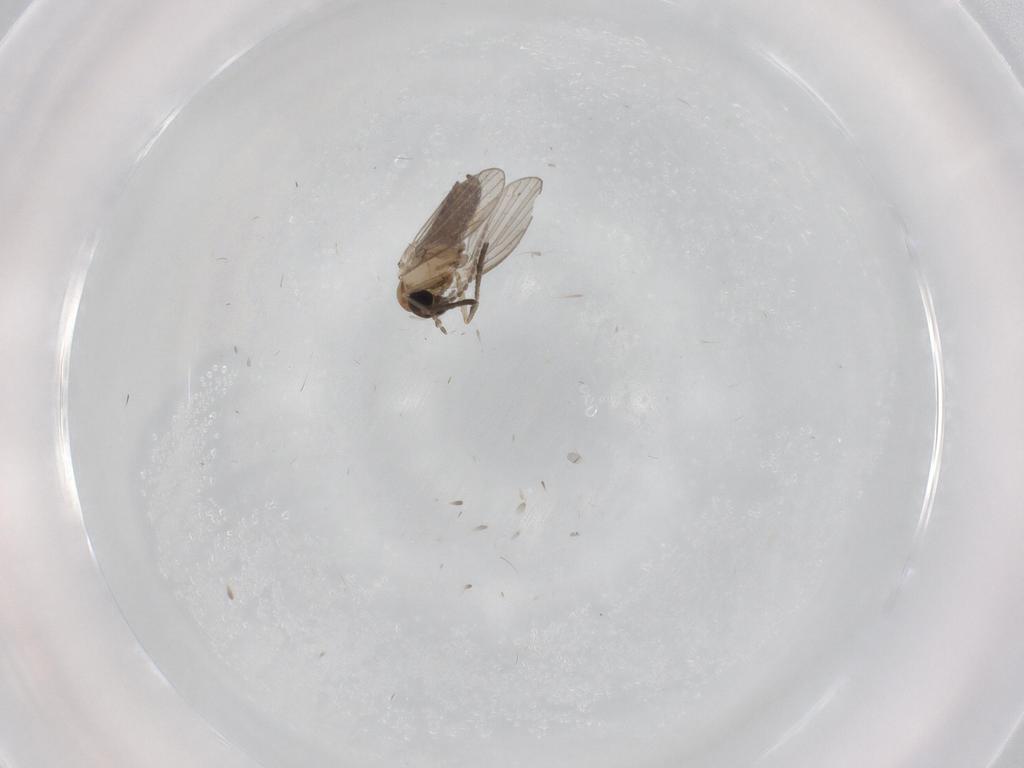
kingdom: Animalia
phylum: Arthropoda
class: Insecta
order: Diptera
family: Psychodidae
